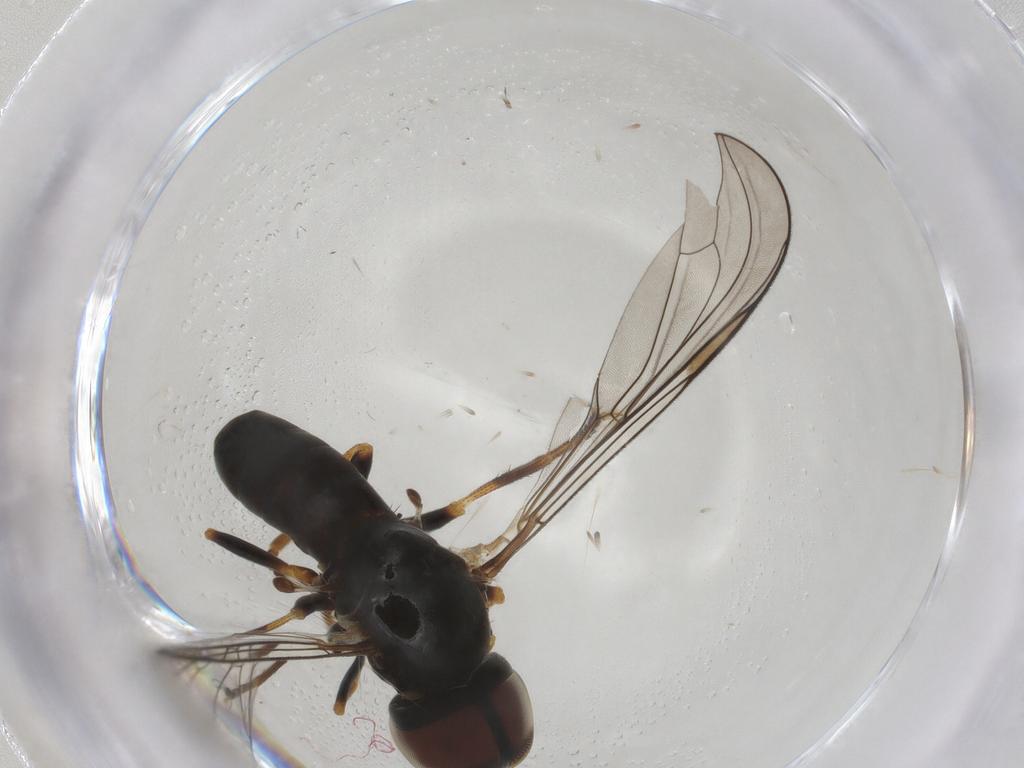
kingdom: Animalia
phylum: Arthropoda
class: Insecta
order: Diptera
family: Pipunculidae
